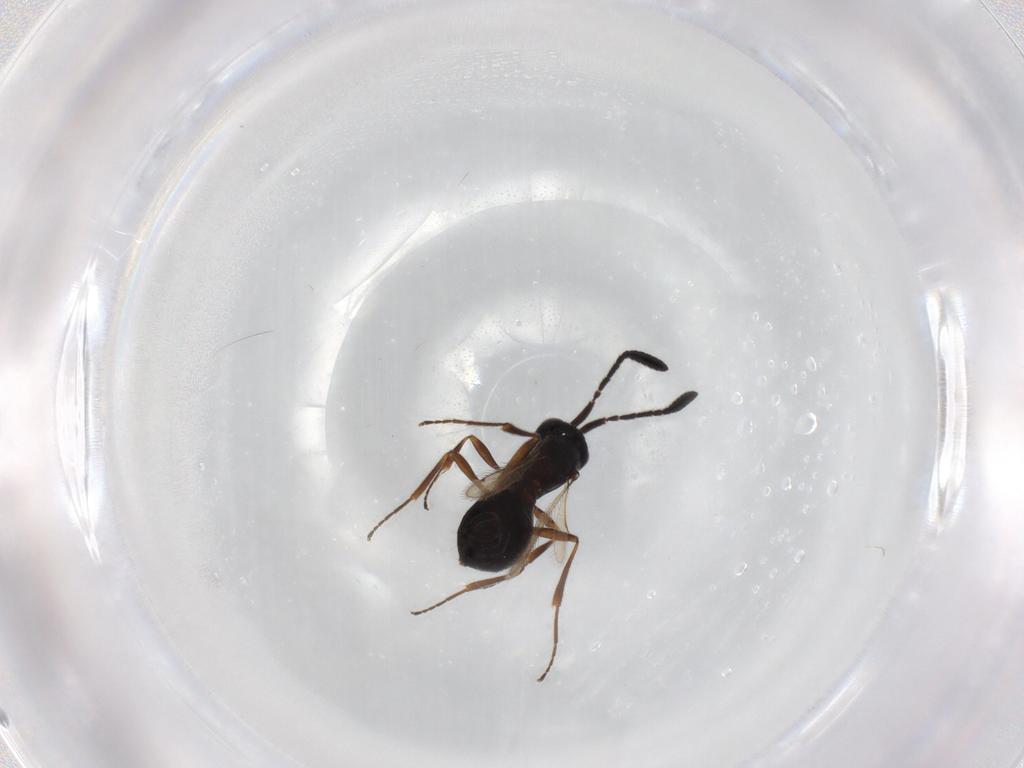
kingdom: Animalia
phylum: Arthropoda
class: Insecta
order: Hymenoptera
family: Scelionidae
